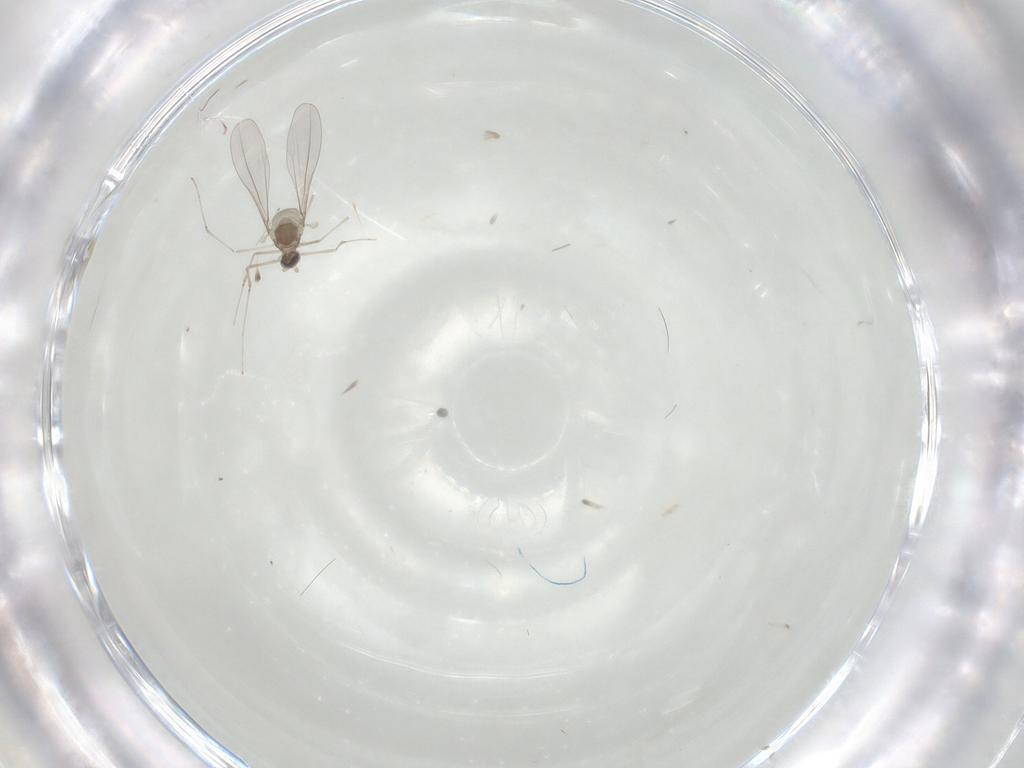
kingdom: Animalia
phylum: Arthropoda
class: Insecta
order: Diptera
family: Cecidomyiidae
